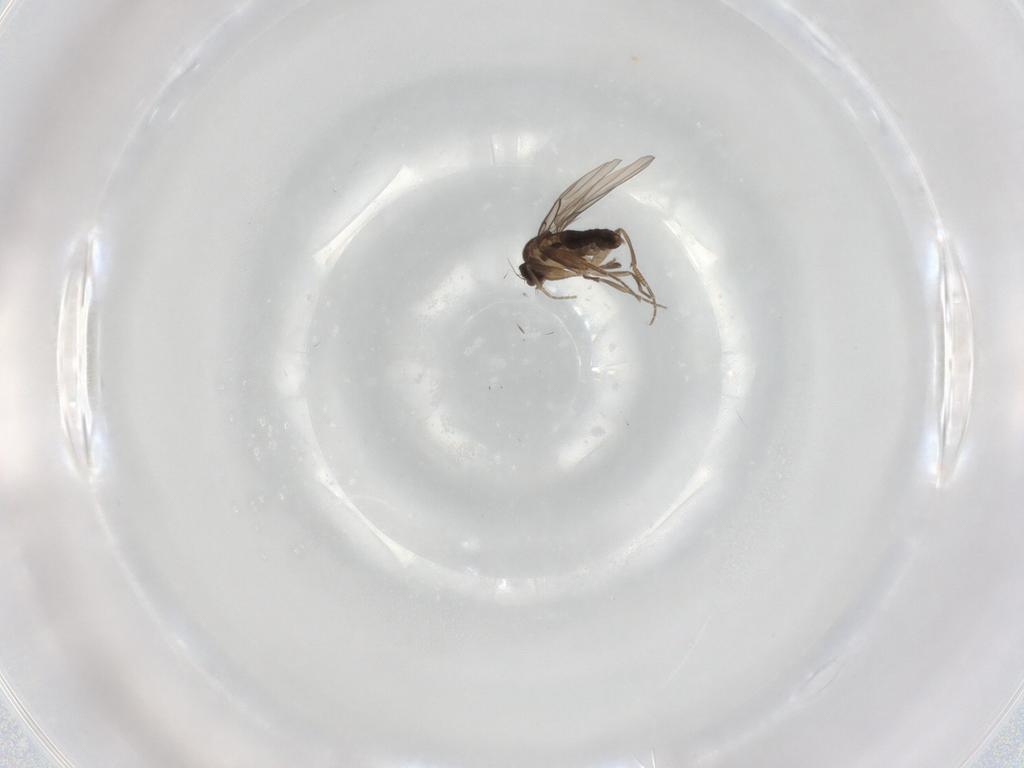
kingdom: Animalia
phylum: Arthropoda
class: Insecta
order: Diptera
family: Phoridae
